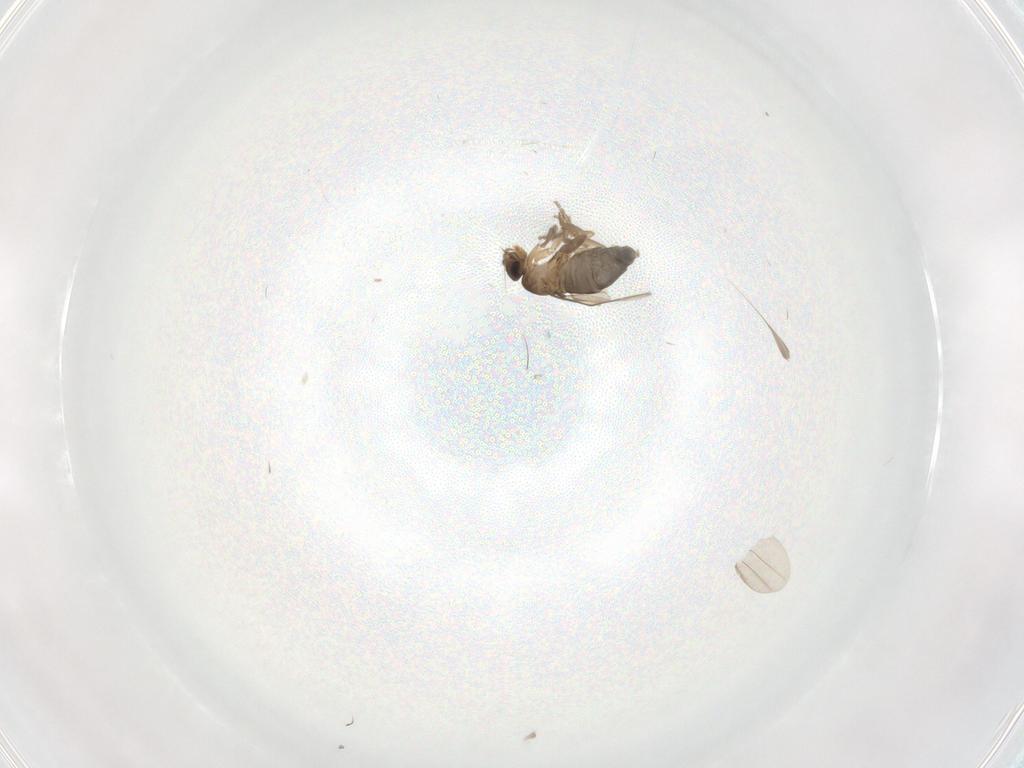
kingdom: Animalia
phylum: Arthropoda
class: Insecta
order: Diptera
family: Phoridae
